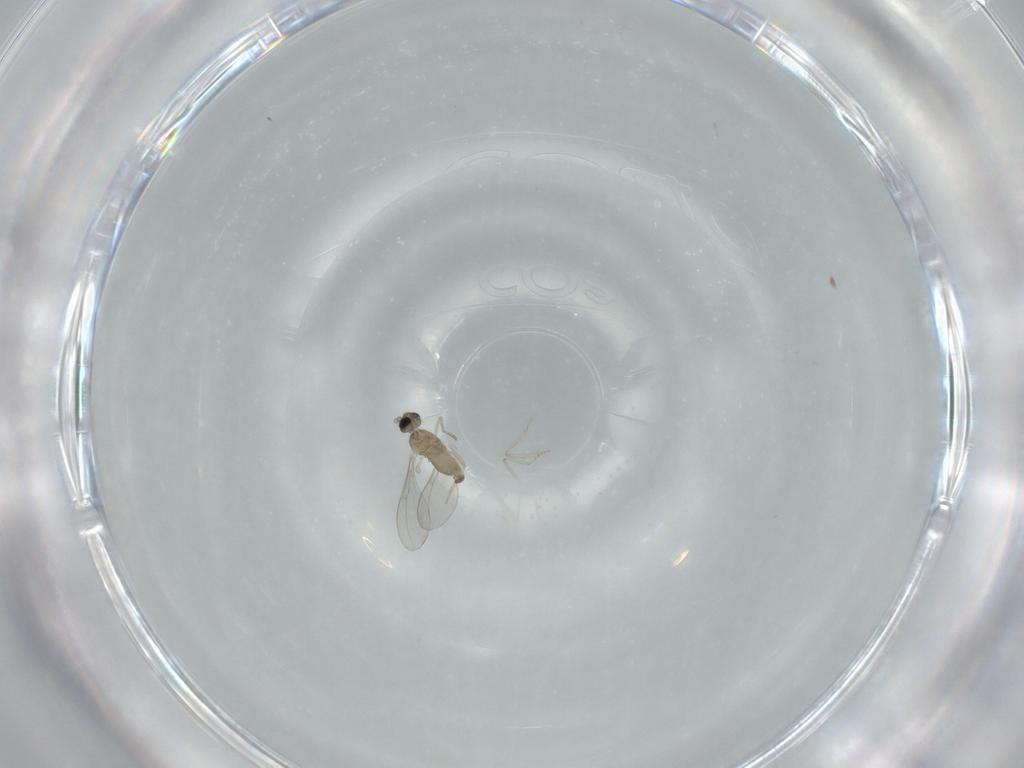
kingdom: Animalia
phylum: Arthropoda
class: Insecta
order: Diptera
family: Cecidomyiidae
